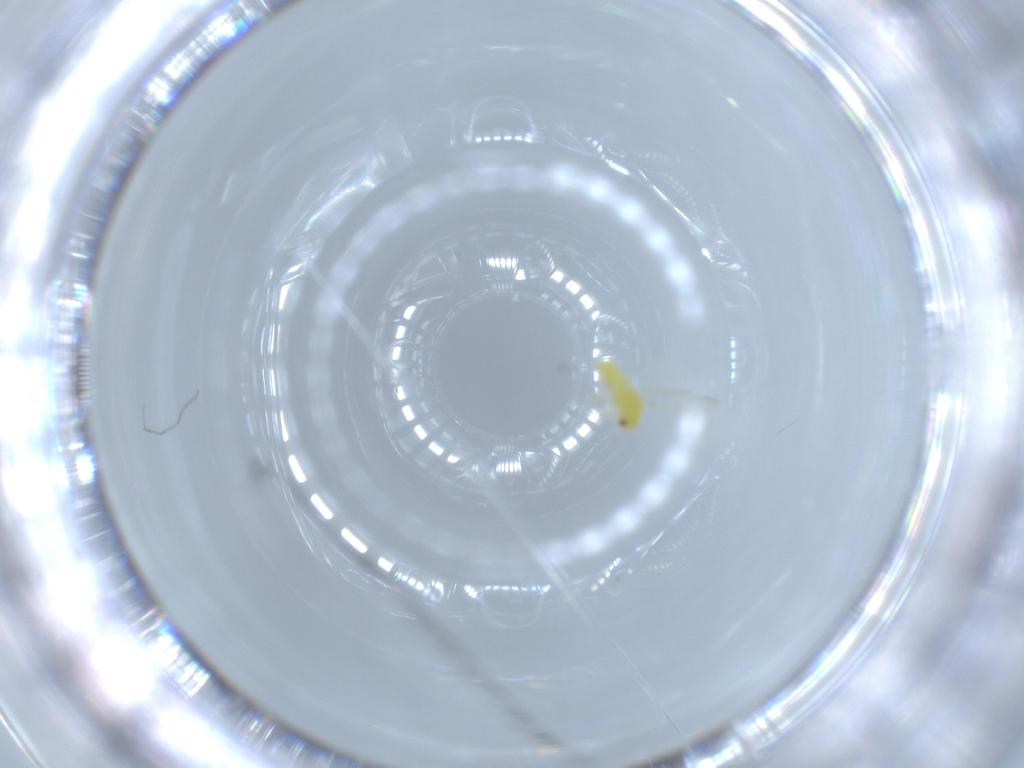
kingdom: Animalia
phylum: Arthropoda
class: Insecta
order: Hemiptera
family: Aleyrodidae
